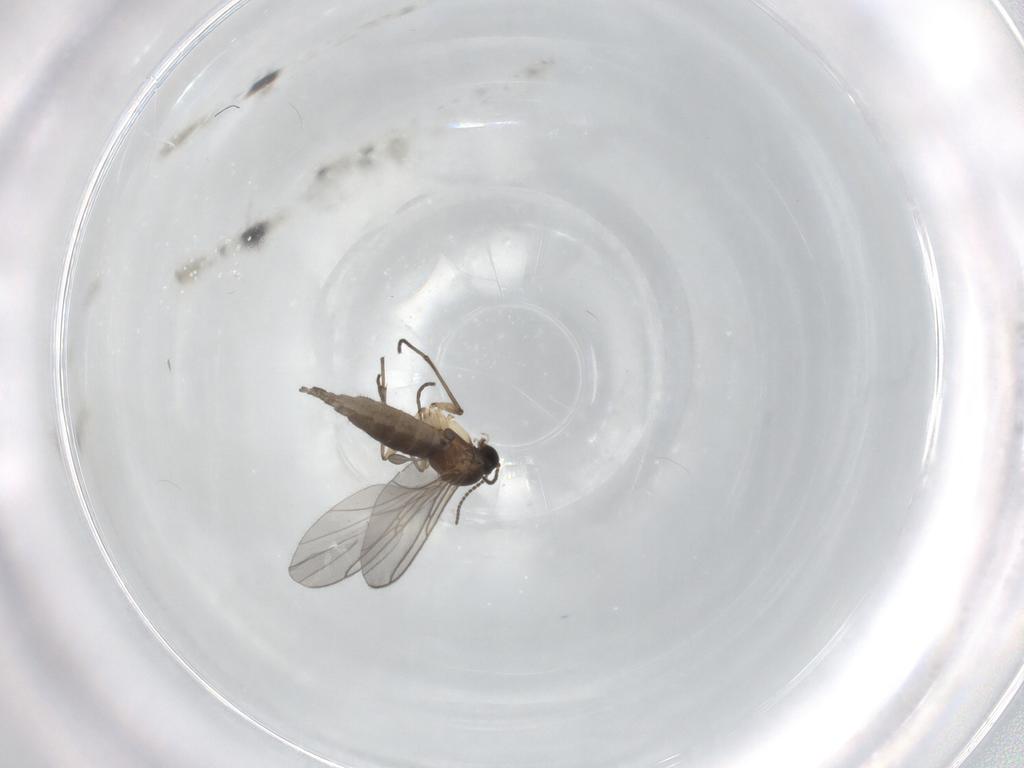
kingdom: Animalia
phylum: Arthropoda
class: Insecta
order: Diptera
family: Sciaridae
